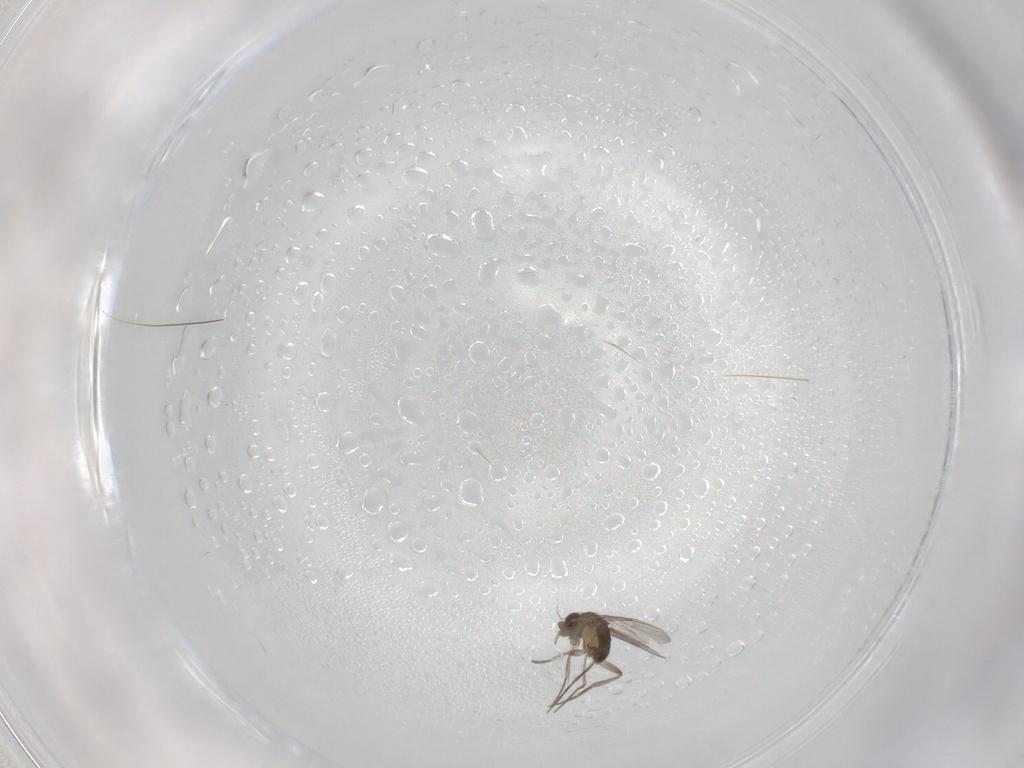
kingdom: Animalia
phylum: Arthropoda
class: Insecta
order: Diptera
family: Phoridae
